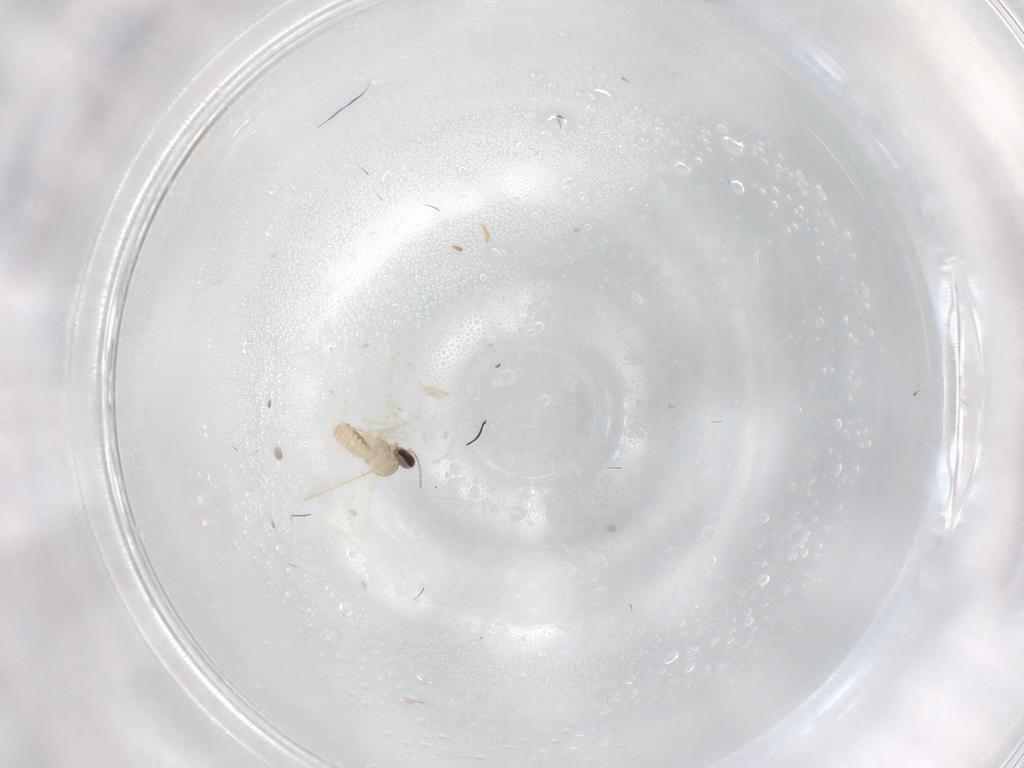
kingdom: Animalia
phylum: Arthropoda
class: Insecta
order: Diptera
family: Cecidomyiidae
